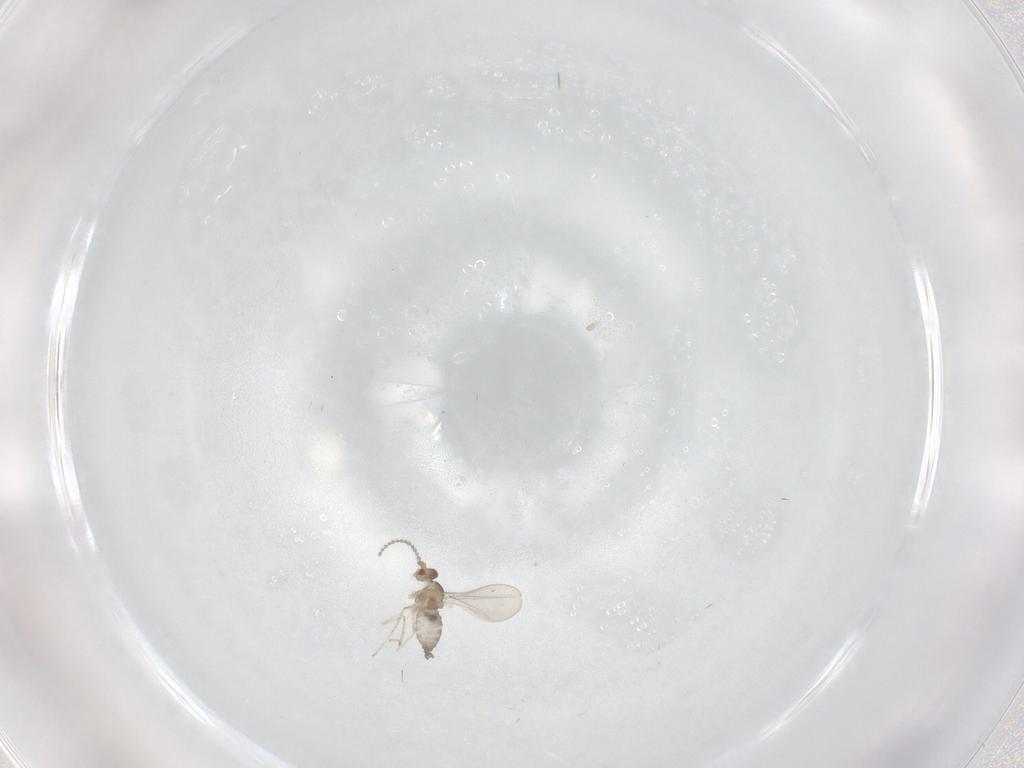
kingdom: Animalia
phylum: Arthropoda
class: Insecta
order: Diptera
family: Cecidomyiidae
